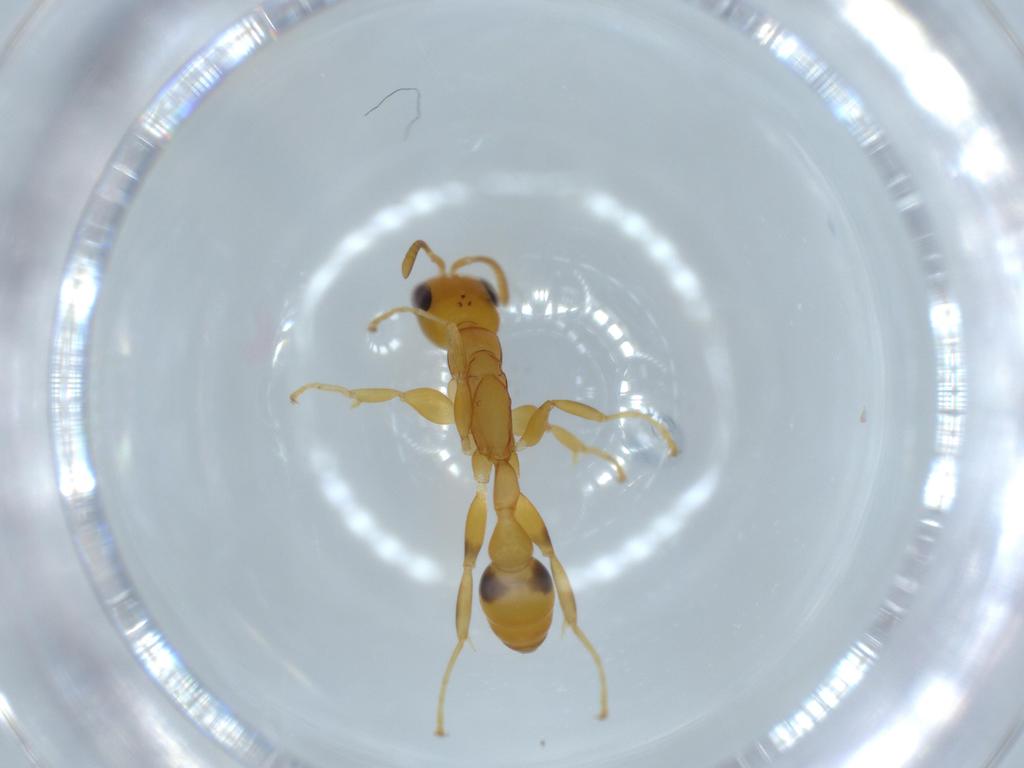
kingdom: Animalia
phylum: Arthropoda
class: Insecta
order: Hymenoptera
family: Formicidae
